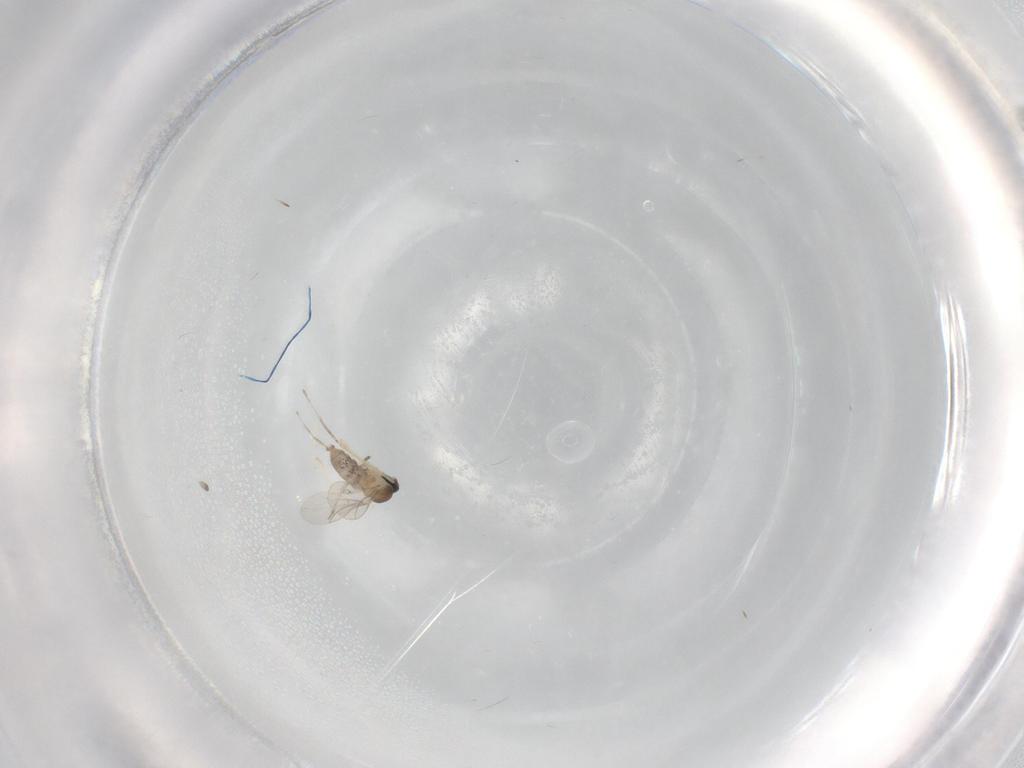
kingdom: Animalia
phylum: Arthropoda
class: Insecta
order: Diptera
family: Cecidomyiidae
